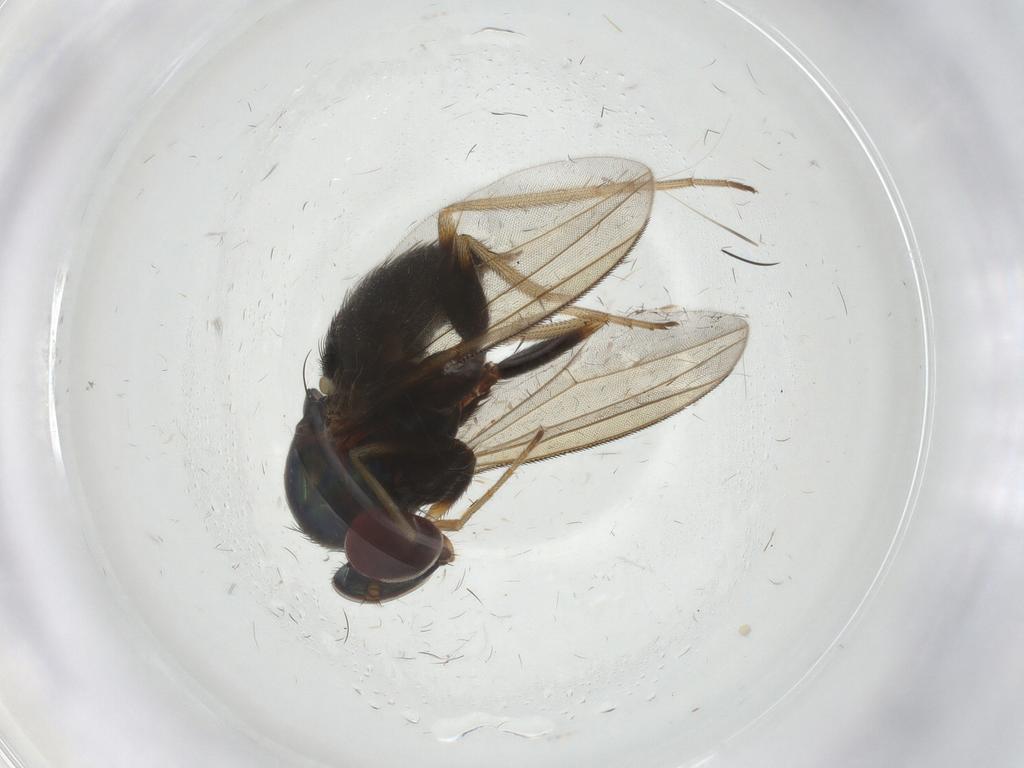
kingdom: Animalia
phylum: Arthropoda
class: Insecta
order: Diptera
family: Dolichopodidae
